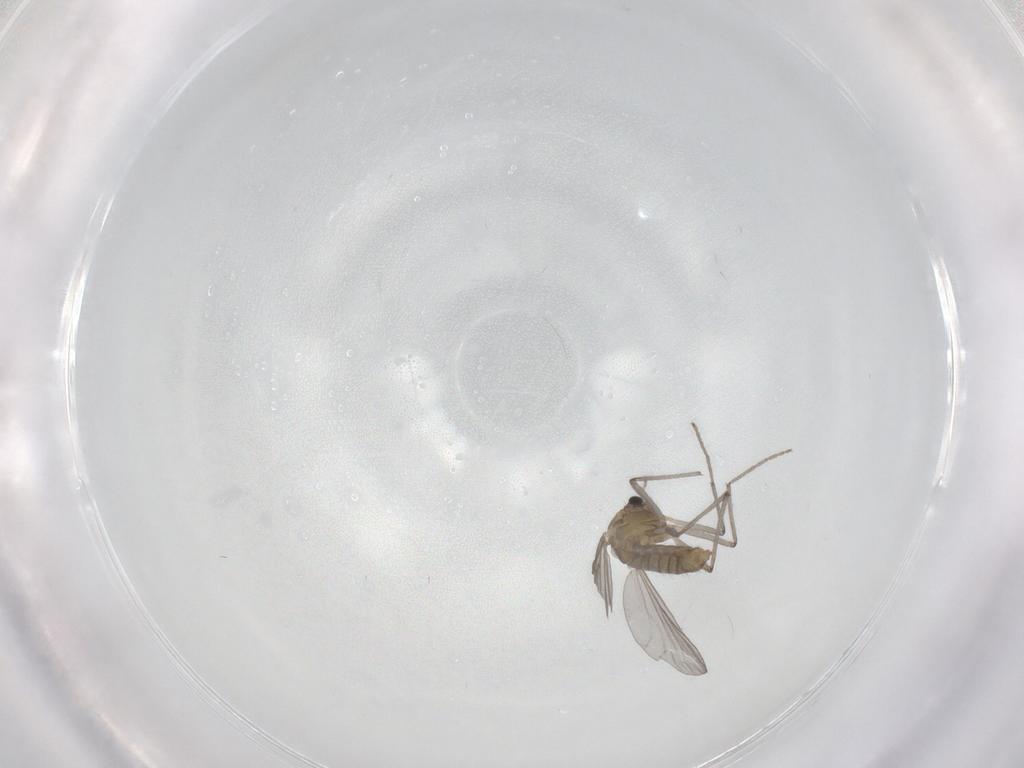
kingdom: Animalia
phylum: Arthropoda
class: Insecta
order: Diptera
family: Chironomidae
